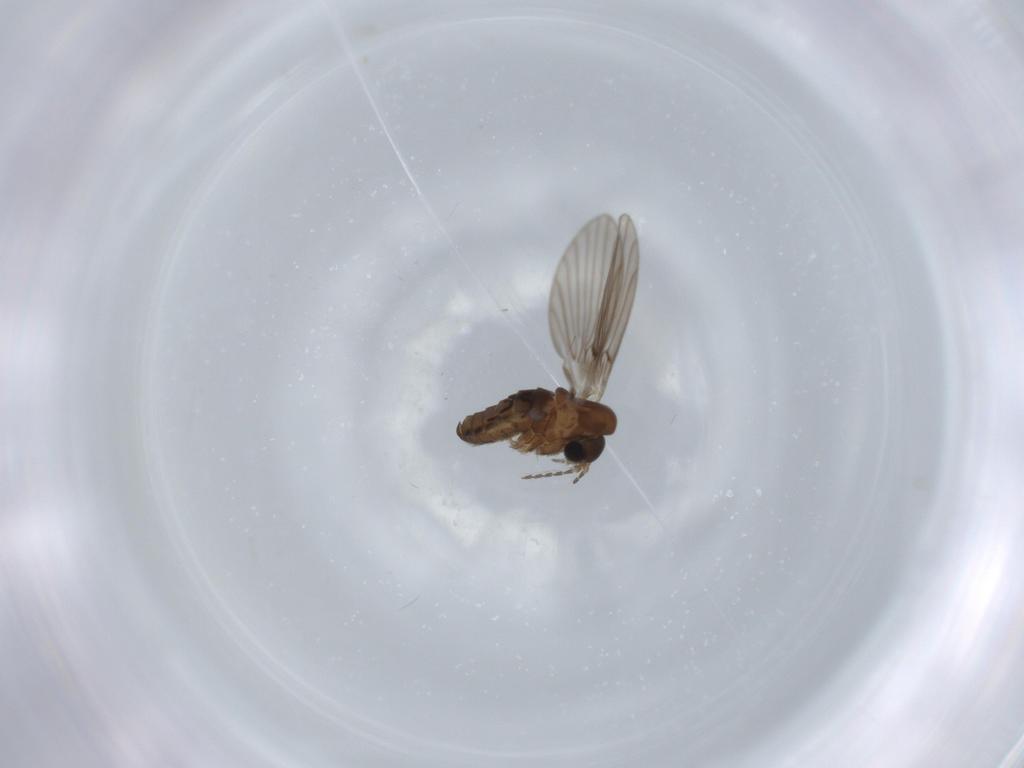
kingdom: Animalia
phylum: Arthropoda
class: Insecta
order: Diptera
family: Psychodidae
